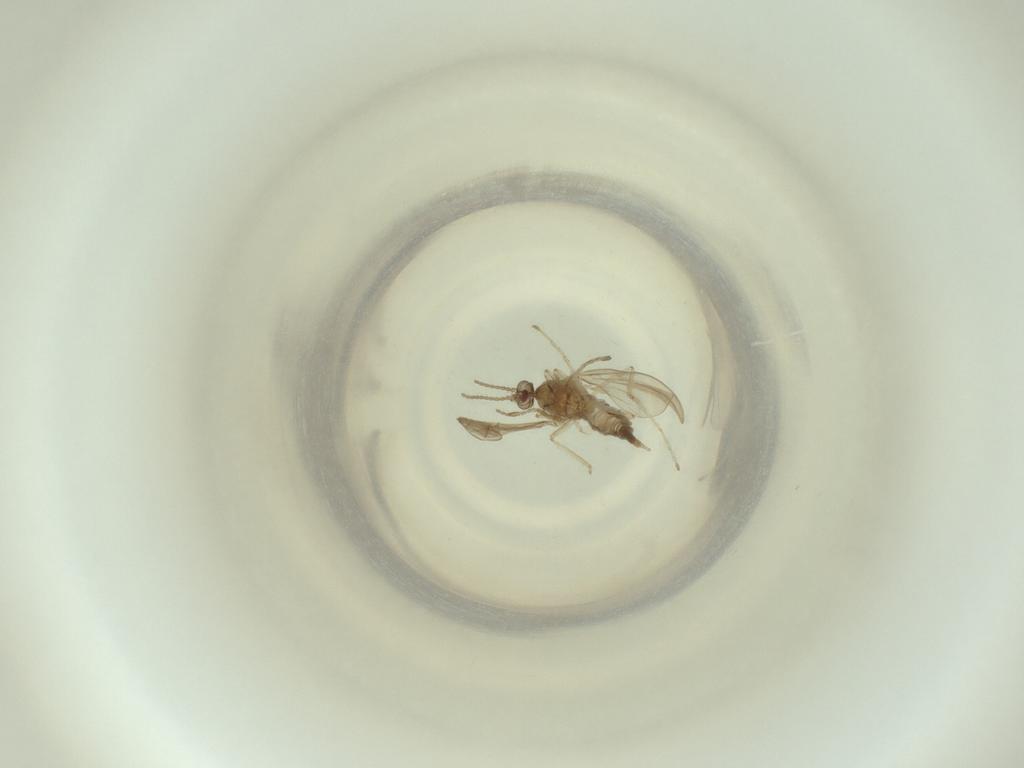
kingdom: Animalia
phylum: Arthropoda
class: Insecta
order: Diptera
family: Cecidomyiidae
